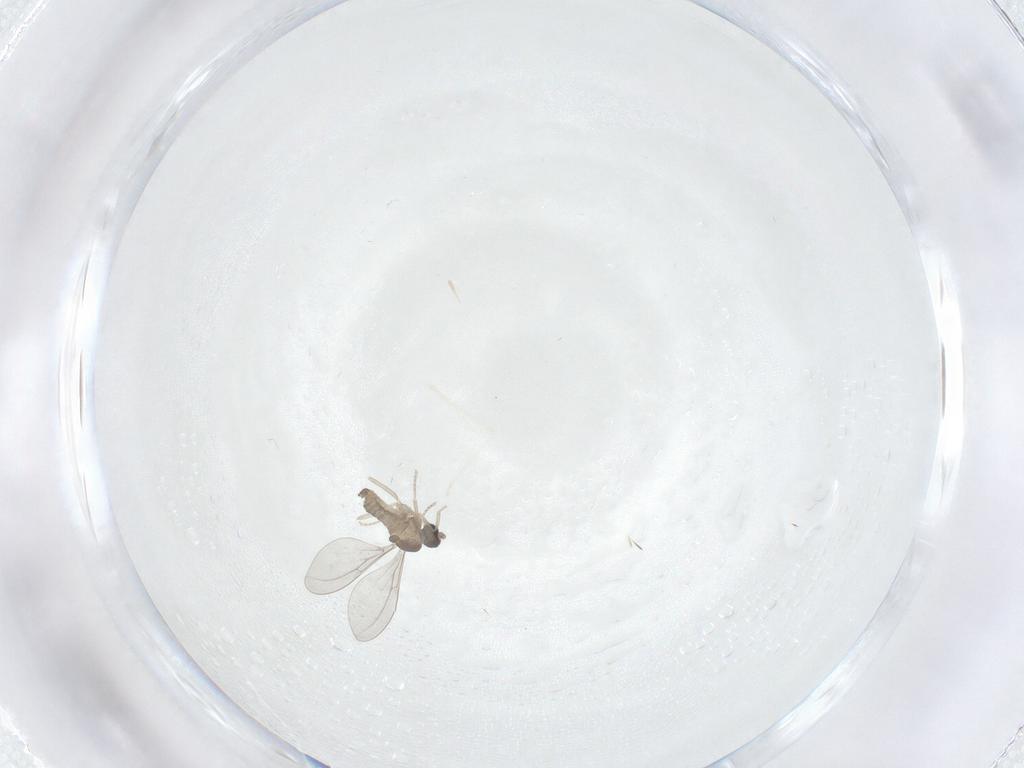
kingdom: Animalia
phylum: Arthropoda
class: Insecta
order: Diptera
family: Cecidomyiidae
